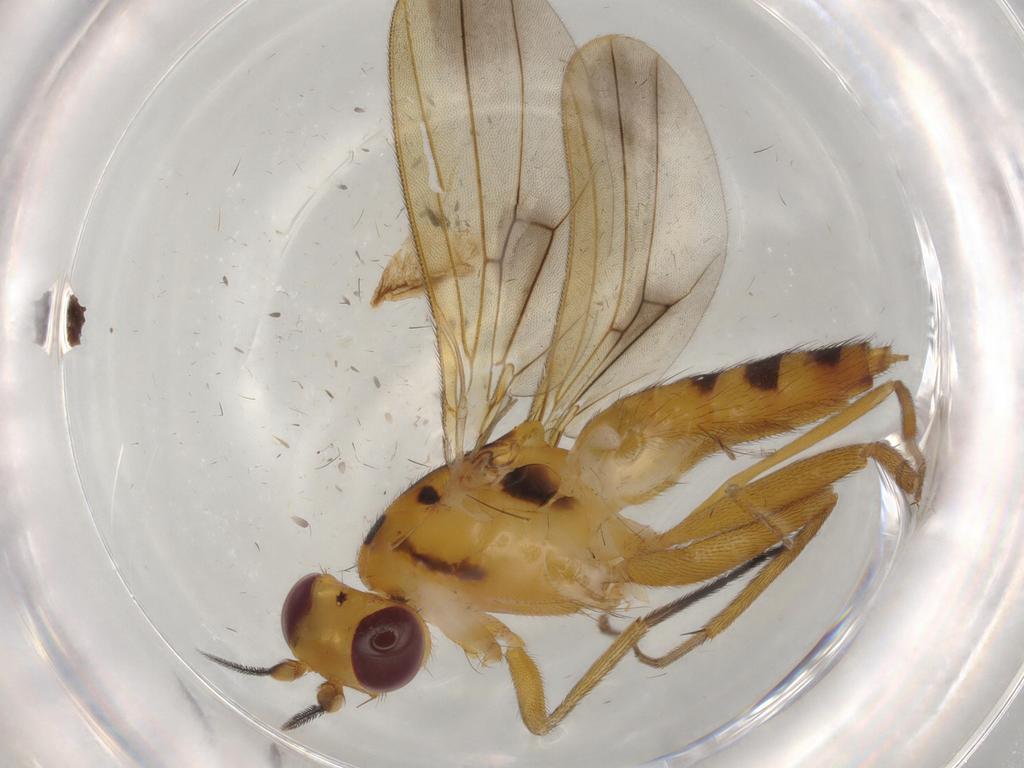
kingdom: Animalia
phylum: Arthropoda
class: Insecta
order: Diptera
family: Cecidomyiidae
